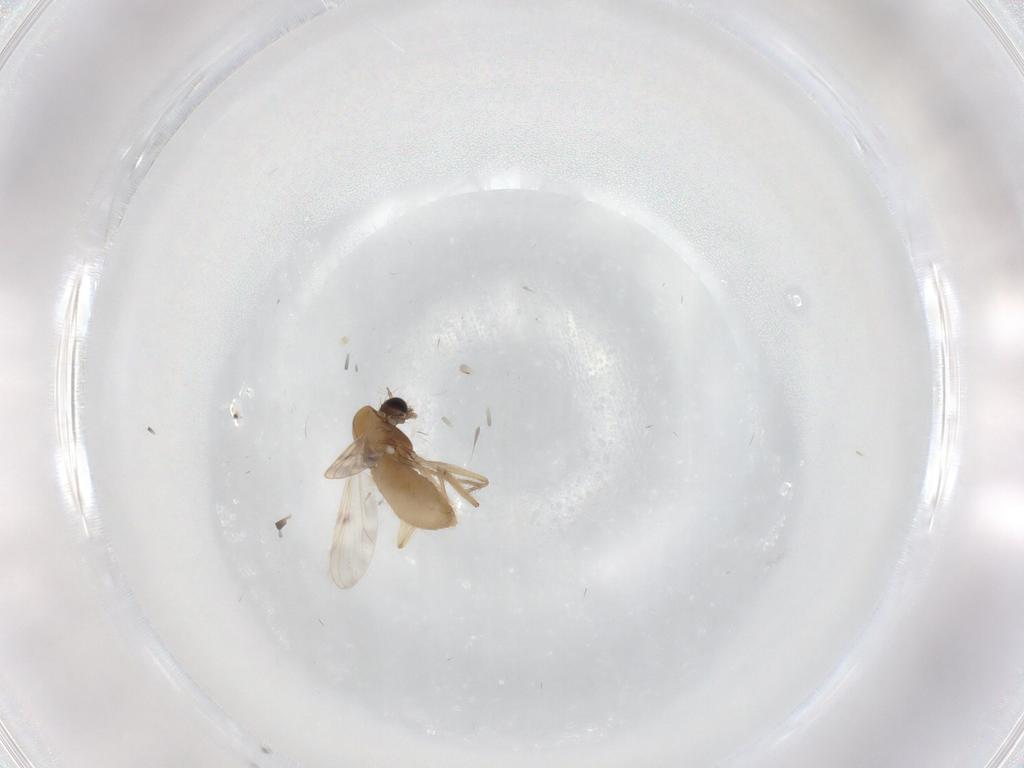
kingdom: Animalia
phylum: Arthropoda
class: Insecta
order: Diptera
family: Chironomidae
